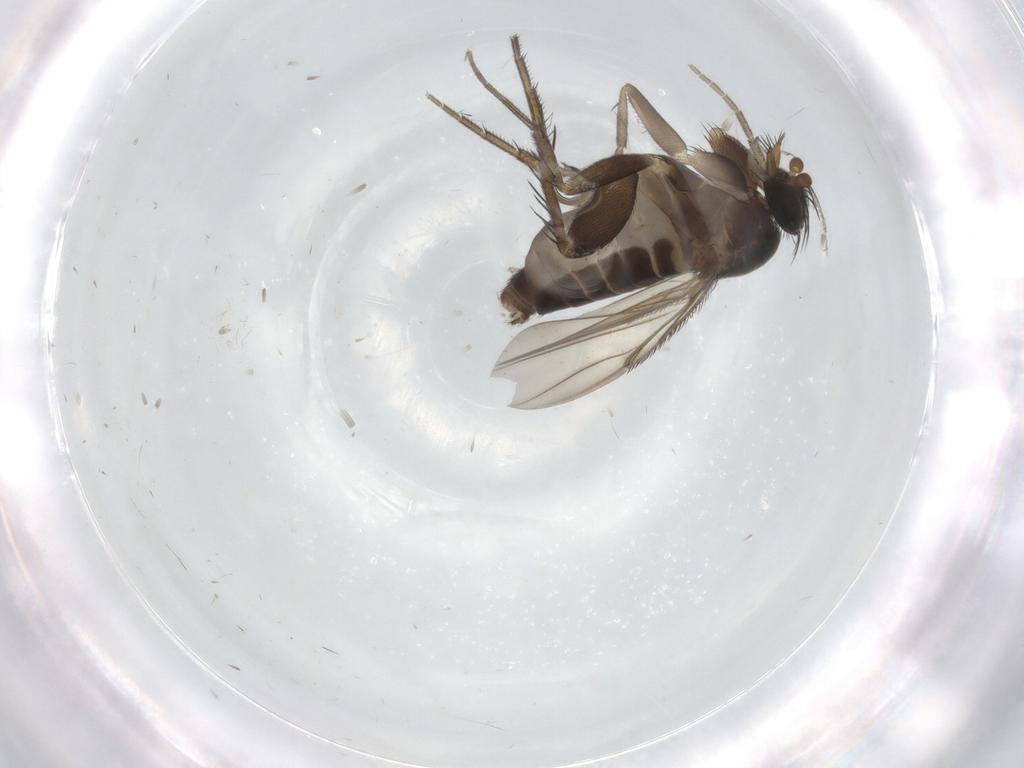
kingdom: Animalia
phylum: Arthropoda
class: Insecta
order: Diptera
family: Phoridae
